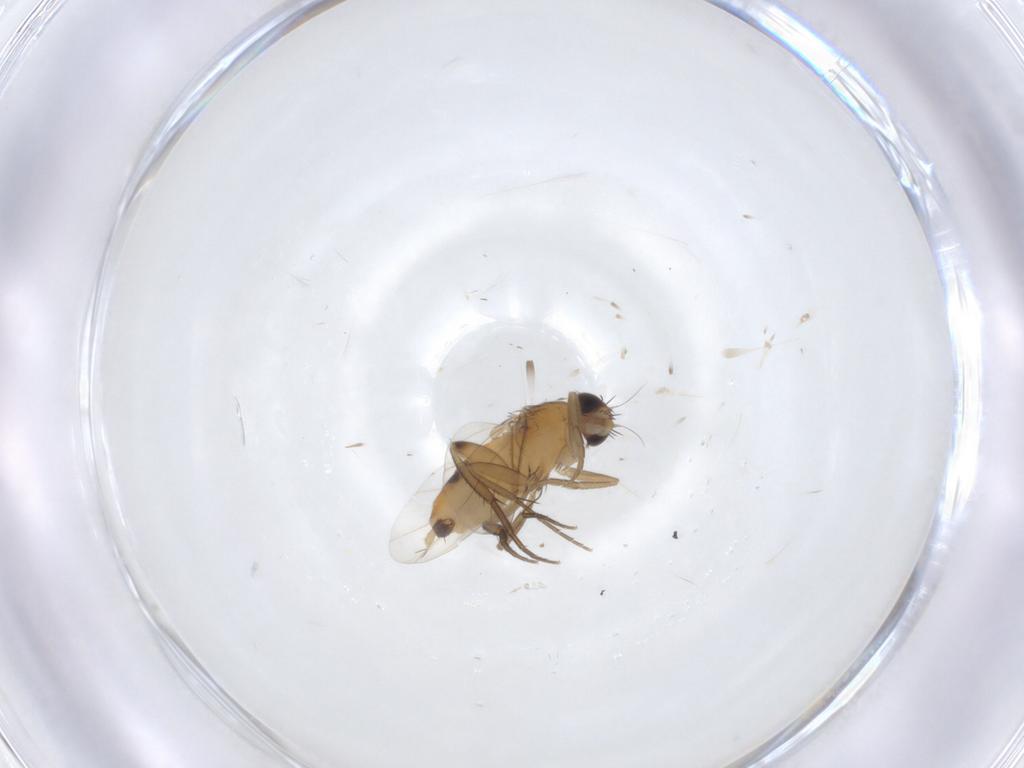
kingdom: Animalia
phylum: Arthropoda
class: Insecta
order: Diptera
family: Phoridae
